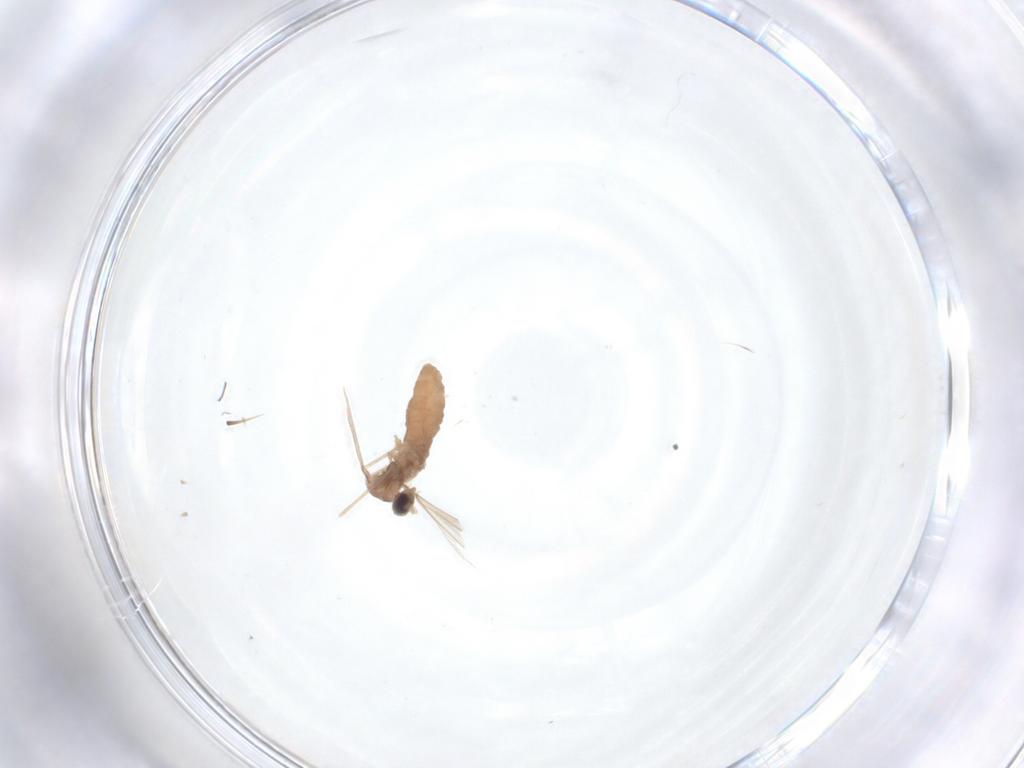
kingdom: Animalia
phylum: Arthropoda
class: Insecta
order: Diptera
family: Cecidomyiidae
